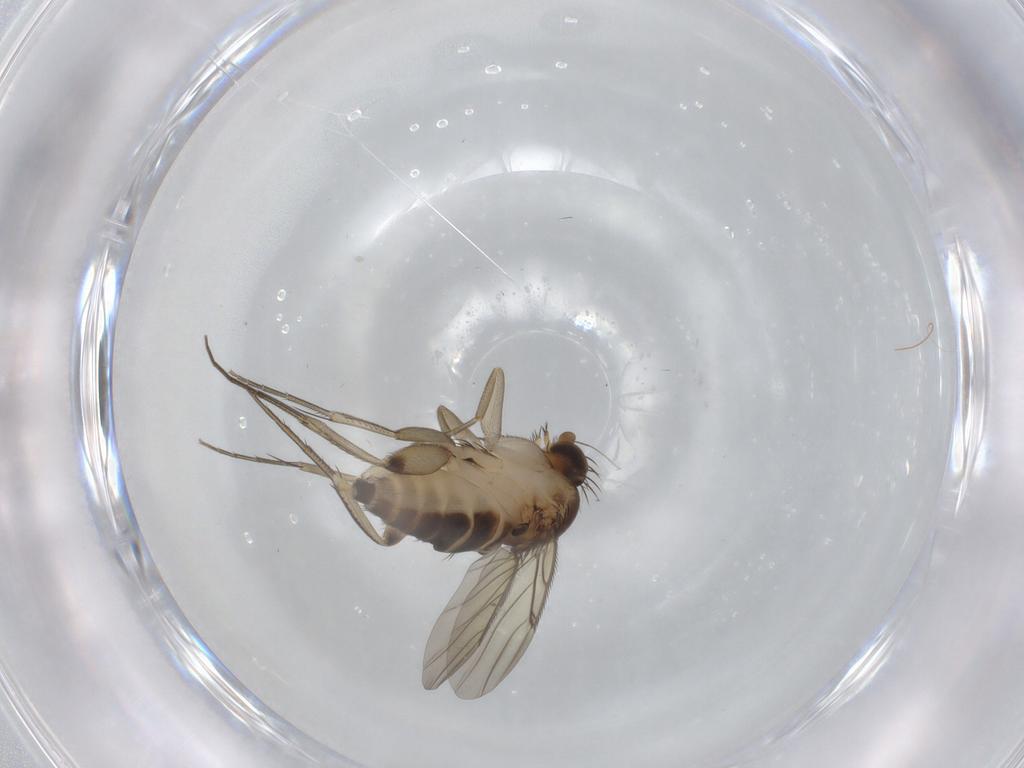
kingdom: Animalia
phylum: Arthropoda
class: Insecta
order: Diptera
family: Phoridae
